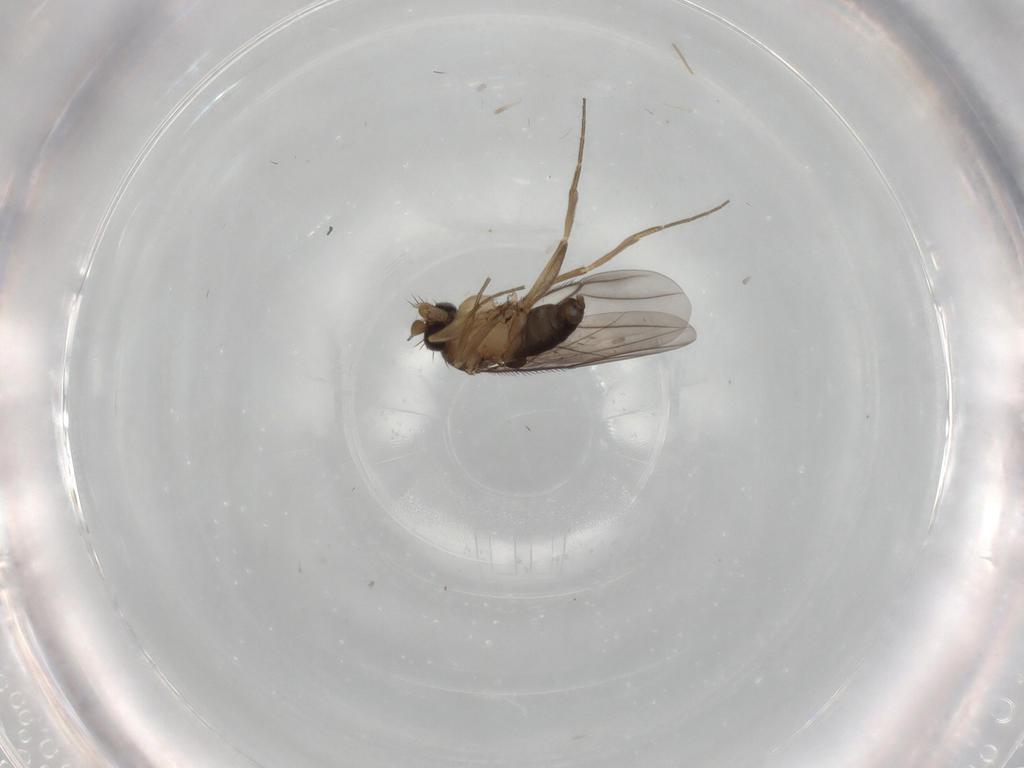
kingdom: Animalia
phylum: Arthropoda
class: Insecta
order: Diptera
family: Phoridae
